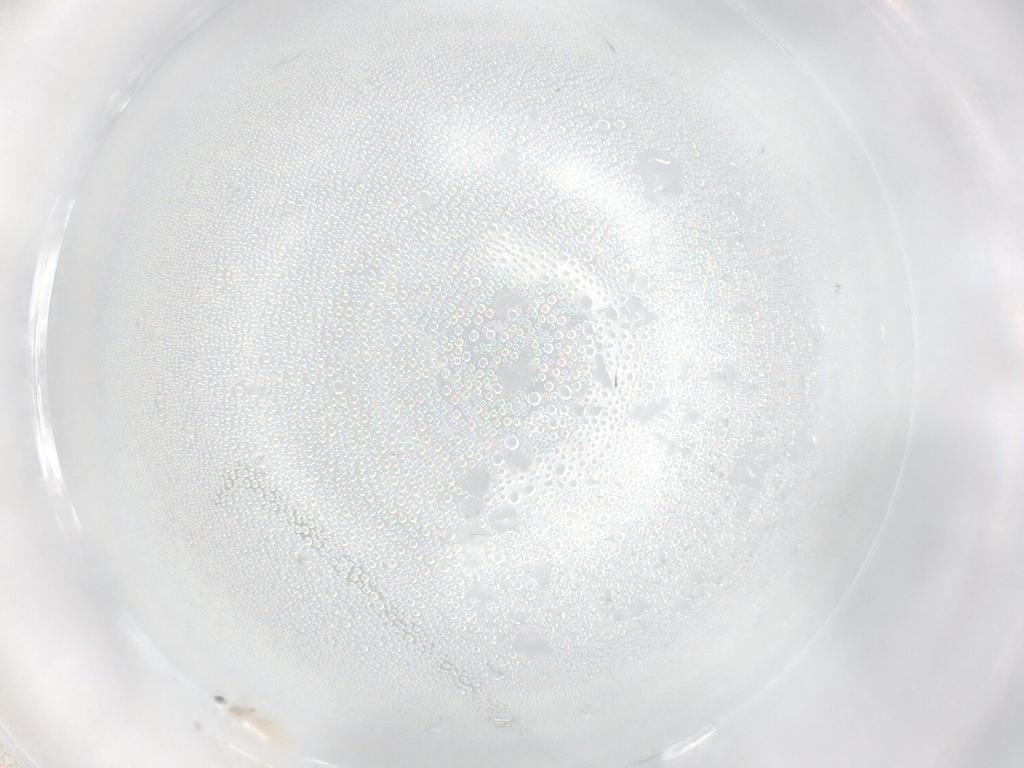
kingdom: Animalia
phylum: Arthropoda
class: Insecta
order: Diptera
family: Cecidomyiidae
